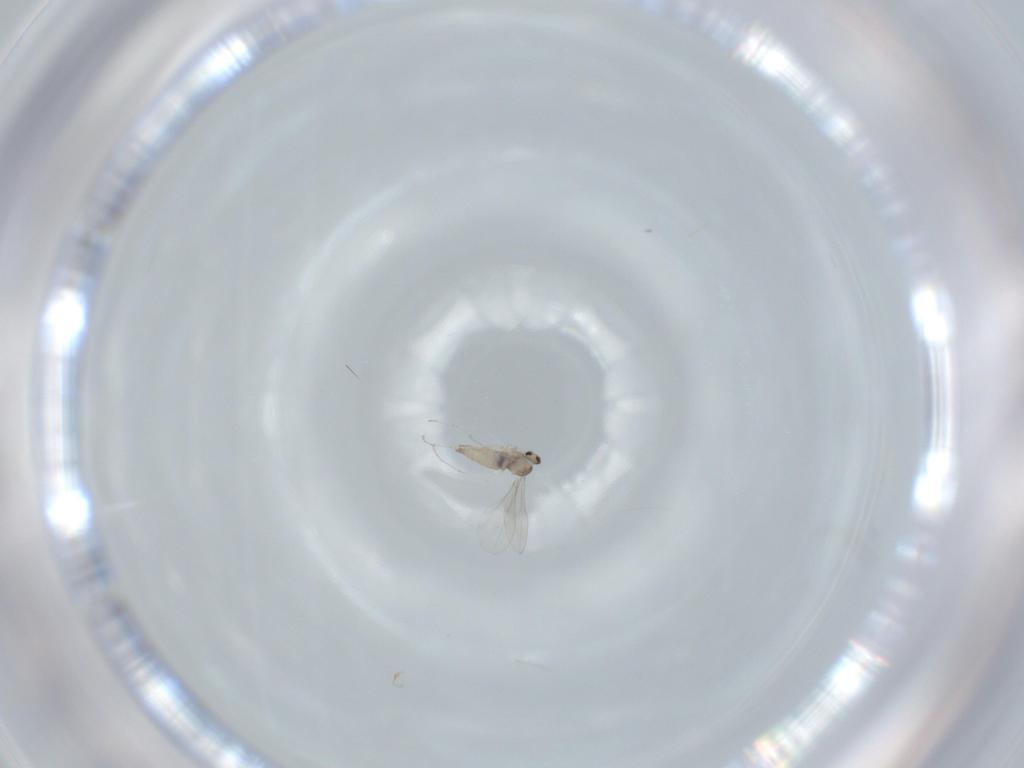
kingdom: Animalia
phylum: Arthropoda
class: Insecta
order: Diptera
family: Cecidomyiidae
